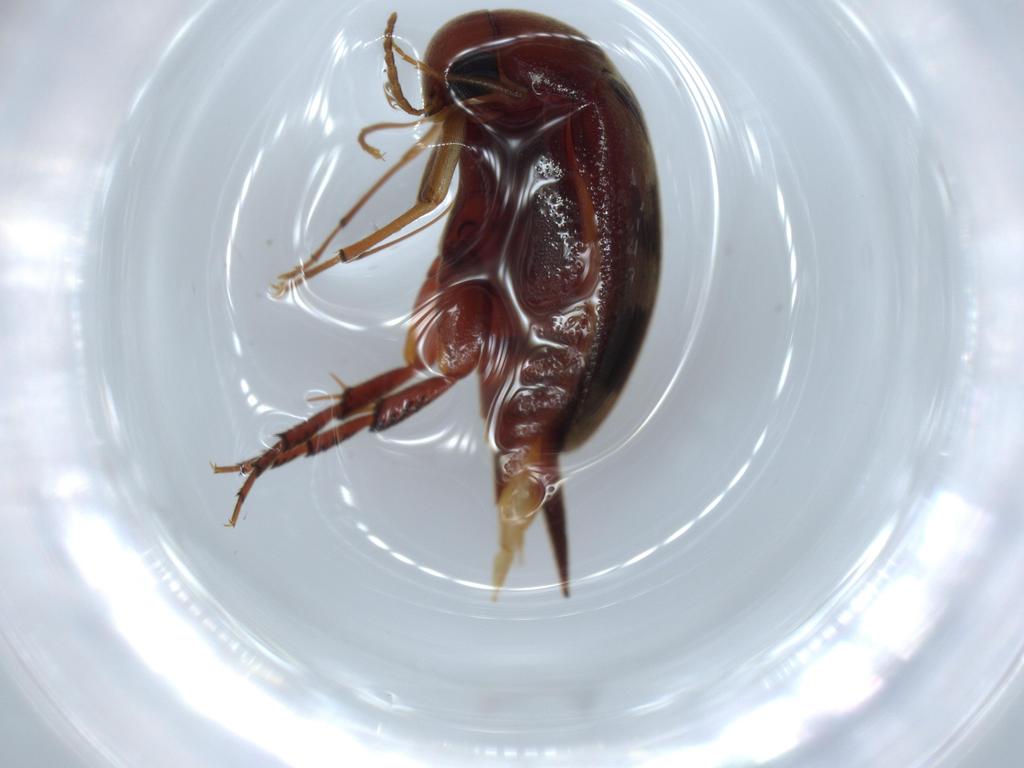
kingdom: Animalia
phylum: Arthropoda
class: Insecta
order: Coleoptera
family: Chrysomelidae
